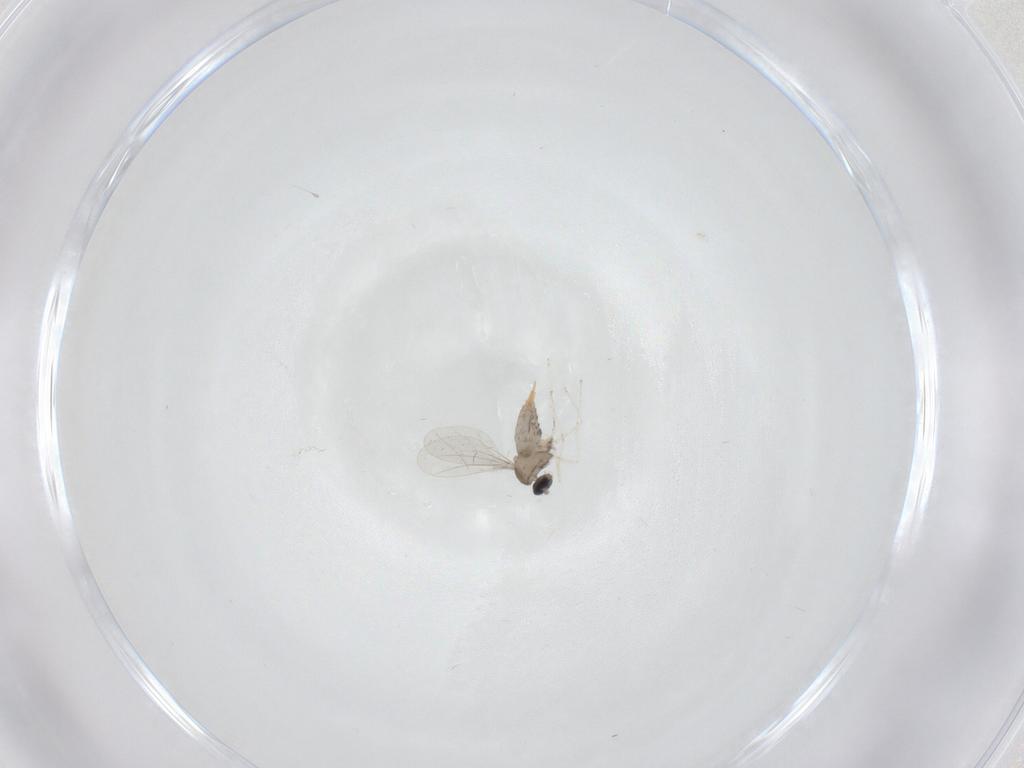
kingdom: Animalia
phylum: Arthropoda
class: Insecta
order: Diptera
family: Cecidomyiidae
